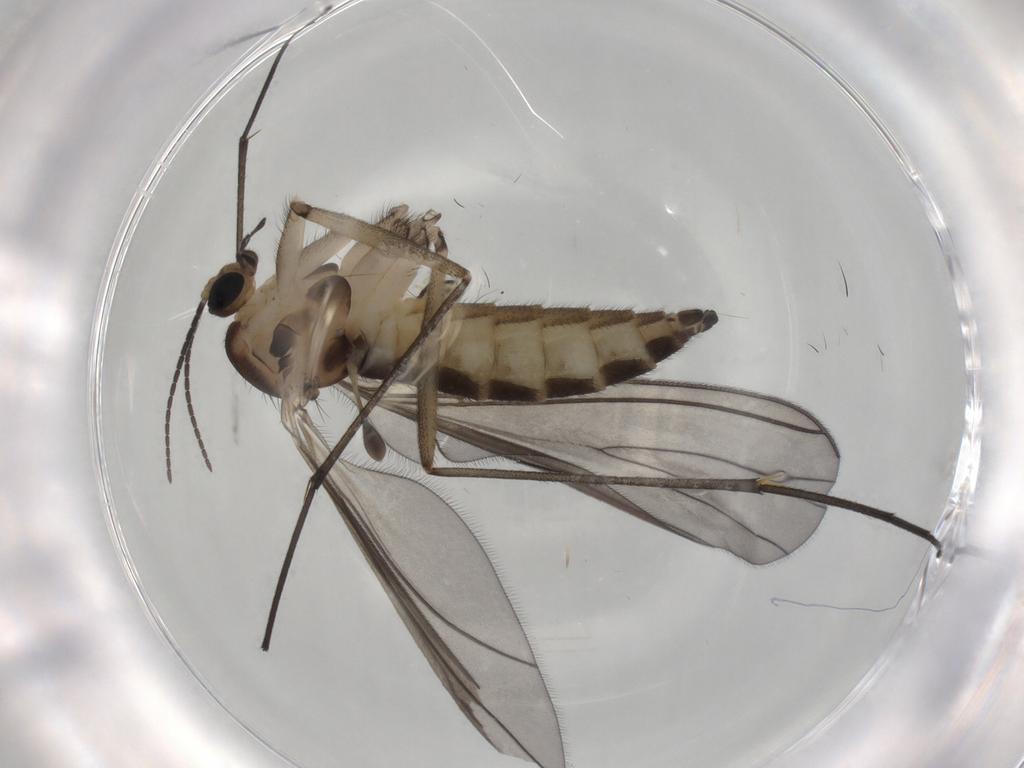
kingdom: Animalia
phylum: Arthropoda
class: Insecta
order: Diptera
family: Sciaridae
